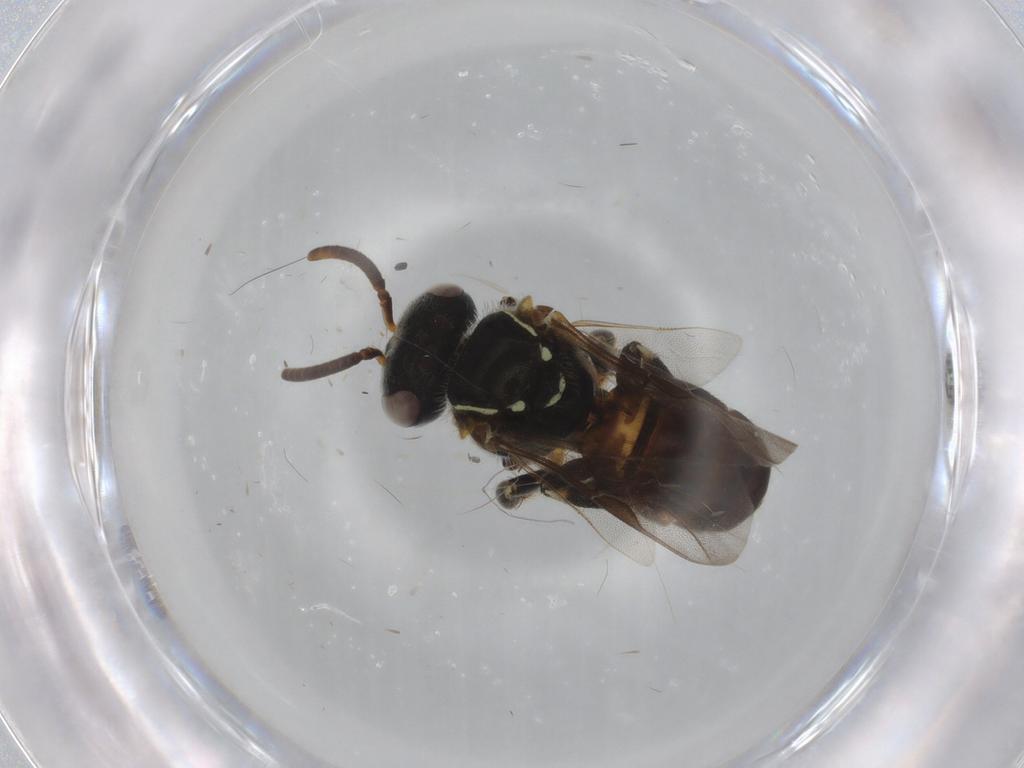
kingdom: Animalia
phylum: Arthropoda
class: Insecta
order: Hymenoptera
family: Apidae
